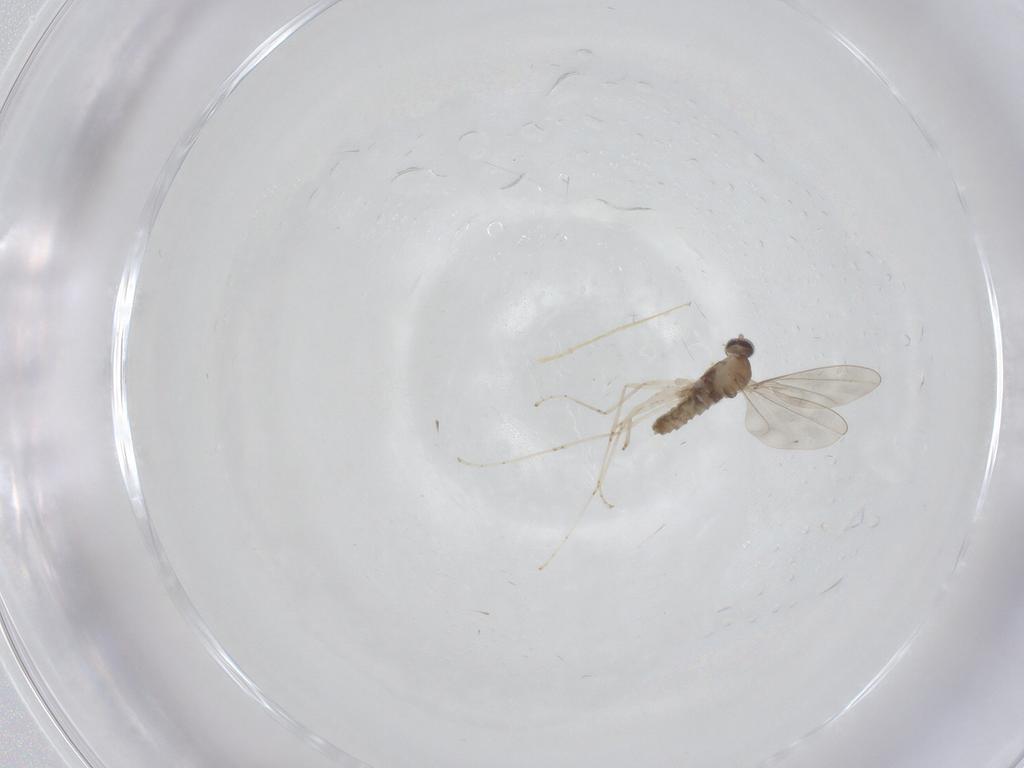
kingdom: Animalia
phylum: Arthropoda
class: Insecta
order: Diptera
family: Cecidomyiidae
